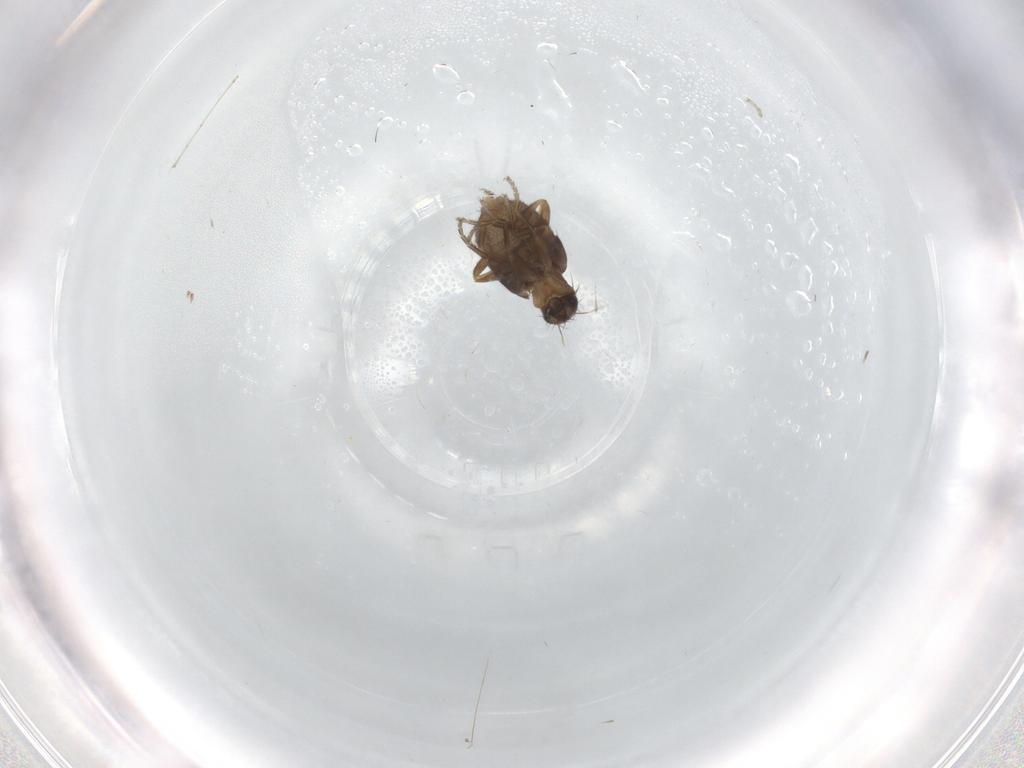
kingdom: Animalia
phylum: Arthropoda
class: Insecta
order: Diptera
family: Phoridae
